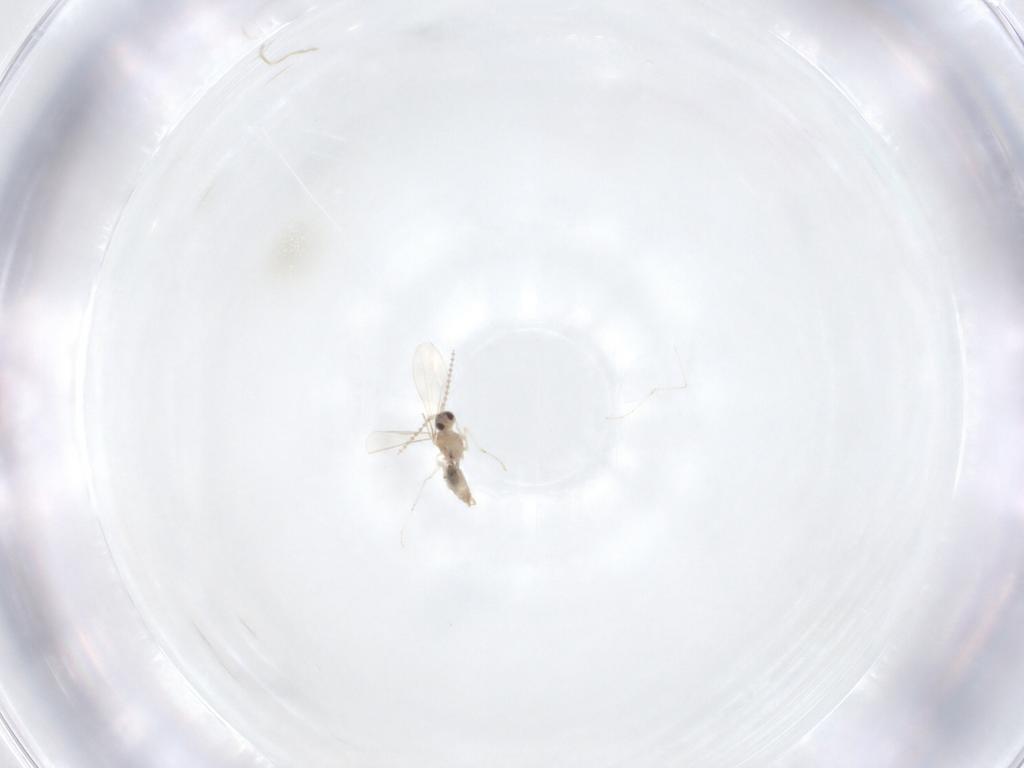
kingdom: Animalia
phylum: Arthropoda
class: Insecta
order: Diptera
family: Cecidomyiidae
